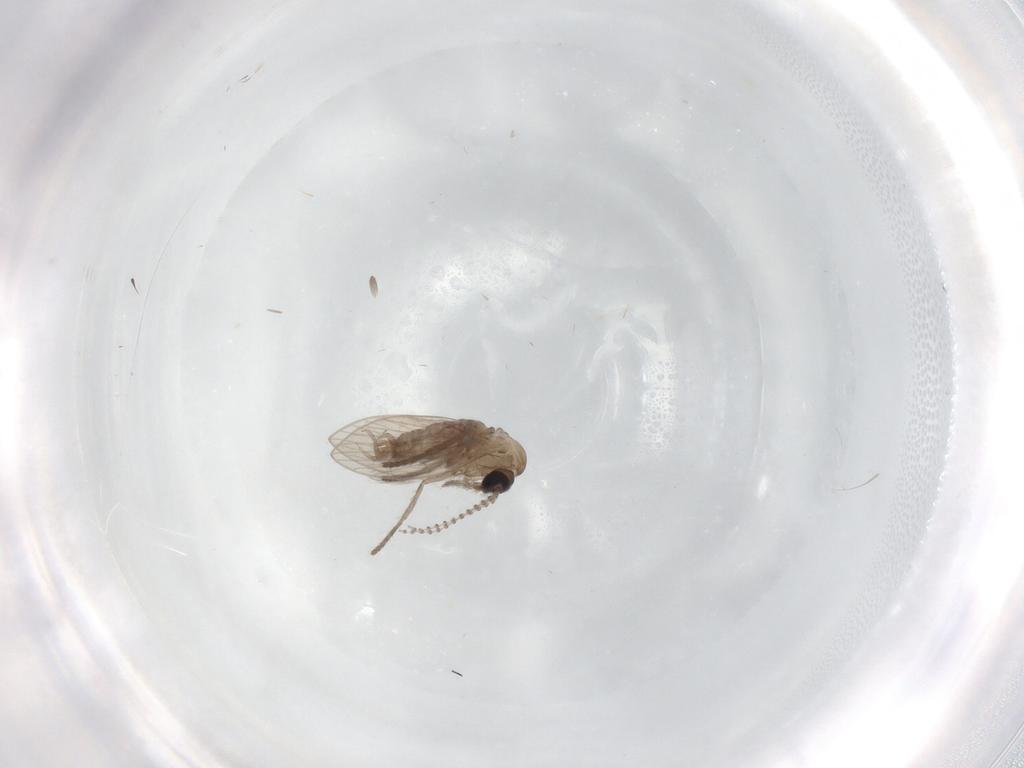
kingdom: Animalia
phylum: Arthropoda
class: Insecta
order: Diptera
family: Psychodidae
